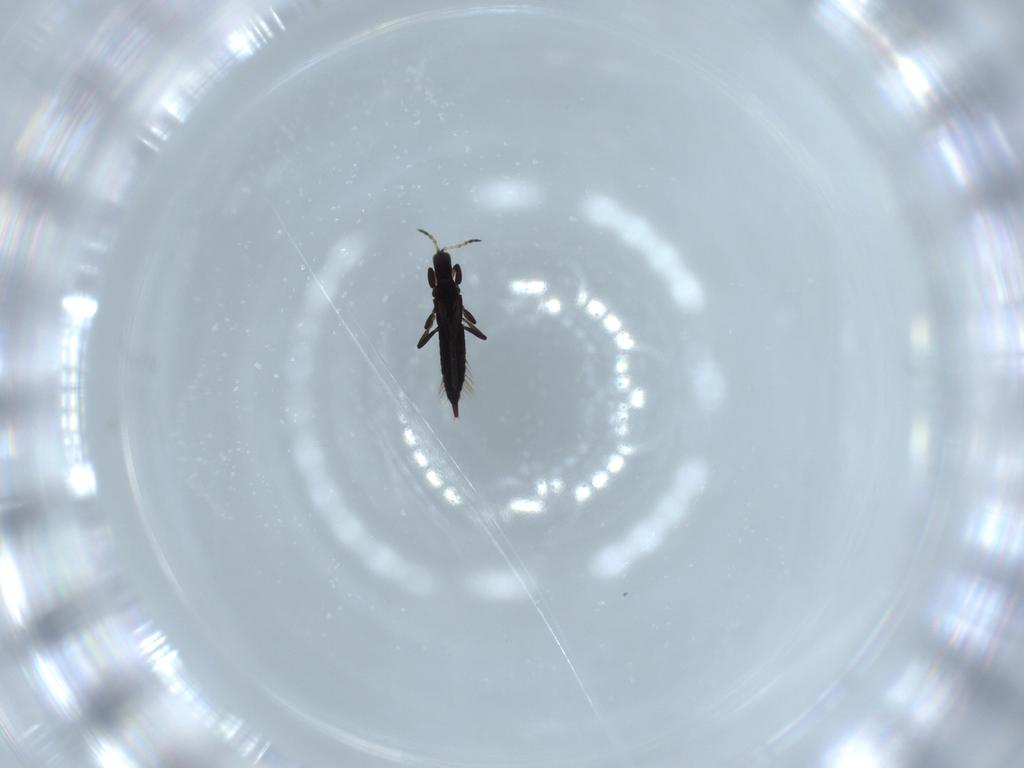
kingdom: Animalia
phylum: Arthropoda
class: Insecta
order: Thysanoptera
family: Phlaeothripidae
